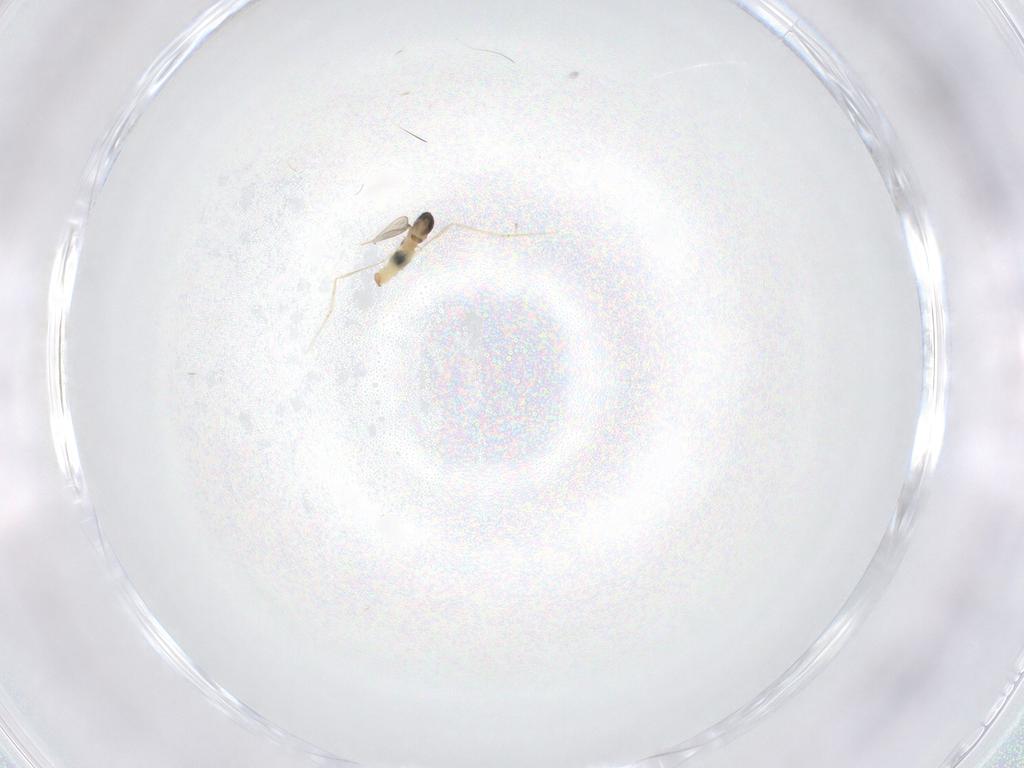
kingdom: Animalia
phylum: Arthropoda
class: Insecta
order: Diptera
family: Cecidomyiidae
